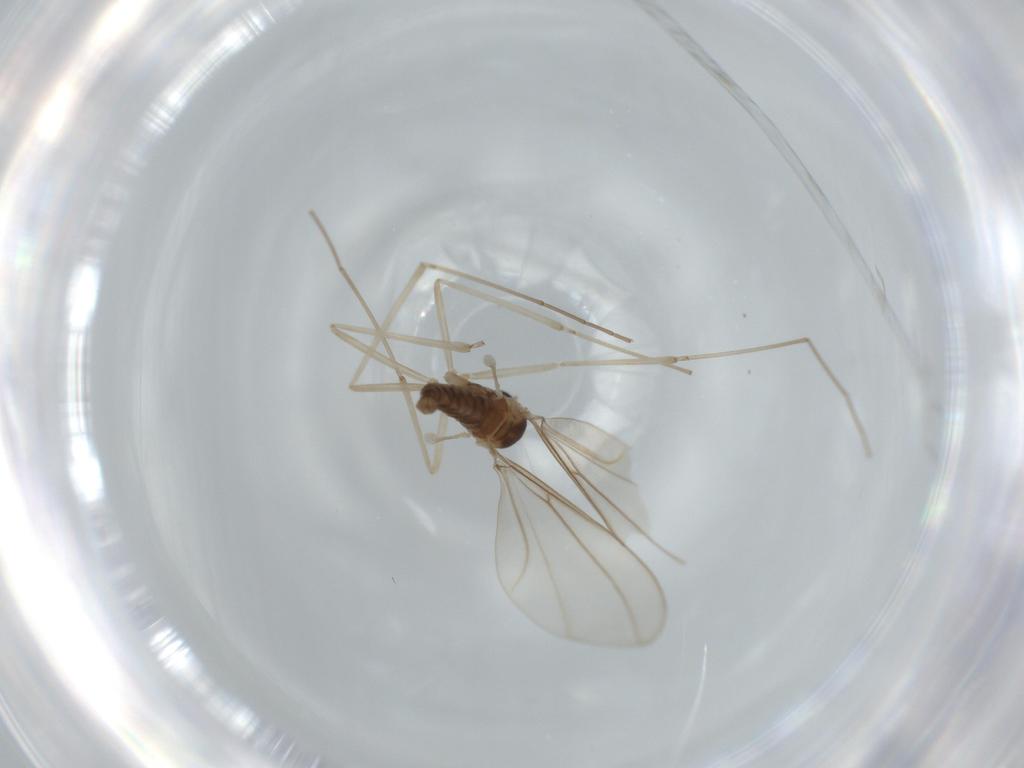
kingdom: Animalia
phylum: Arthropoda
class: Insecta
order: Diptera
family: Cecidomyiidae
